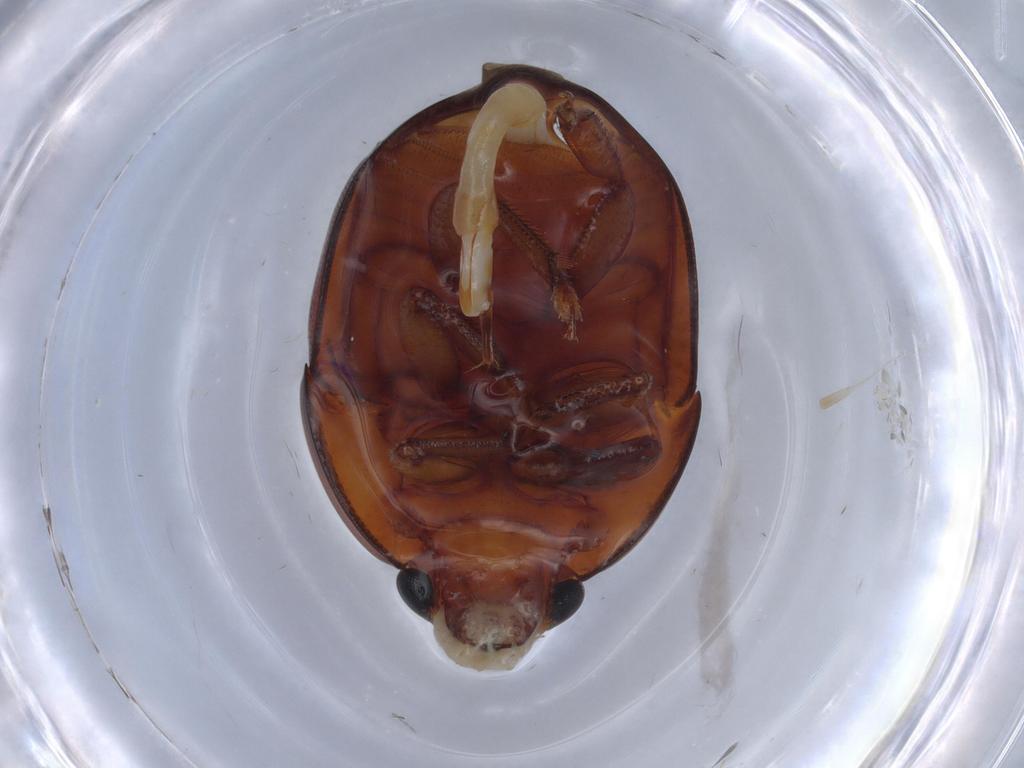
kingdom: Animalia
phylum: Arthropoda
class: Insecta
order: Coleoptera
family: Nitidulidae
